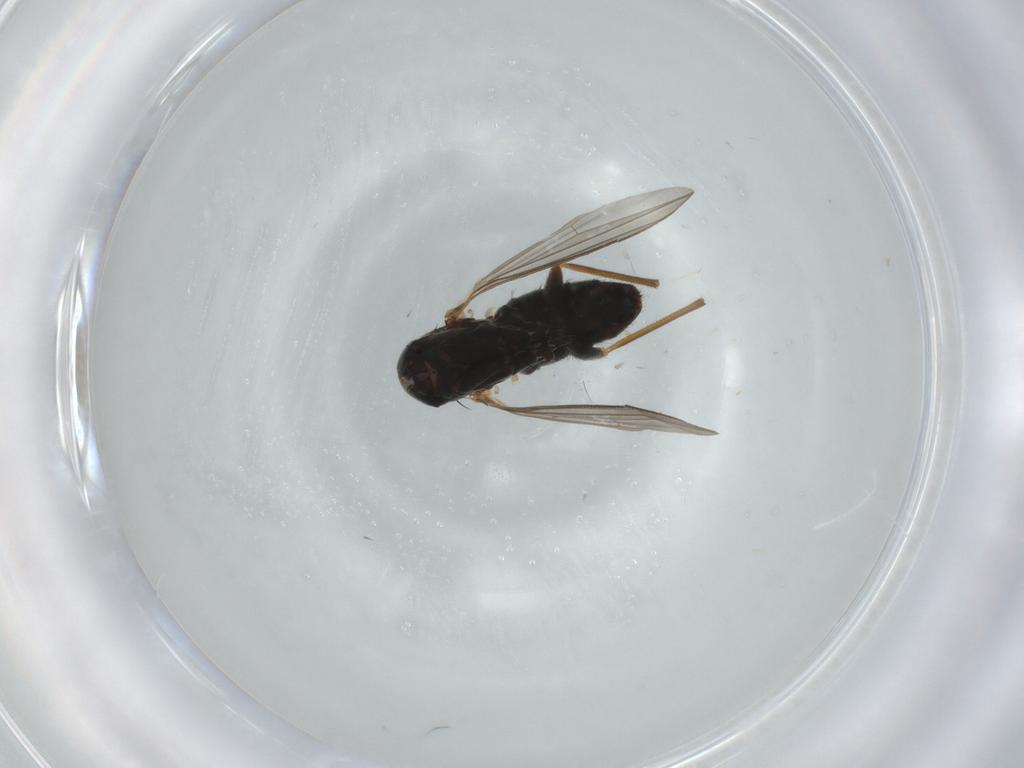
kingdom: Animalia
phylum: Arthropoda
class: Insecta
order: Diptera
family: Dolichopodidae
